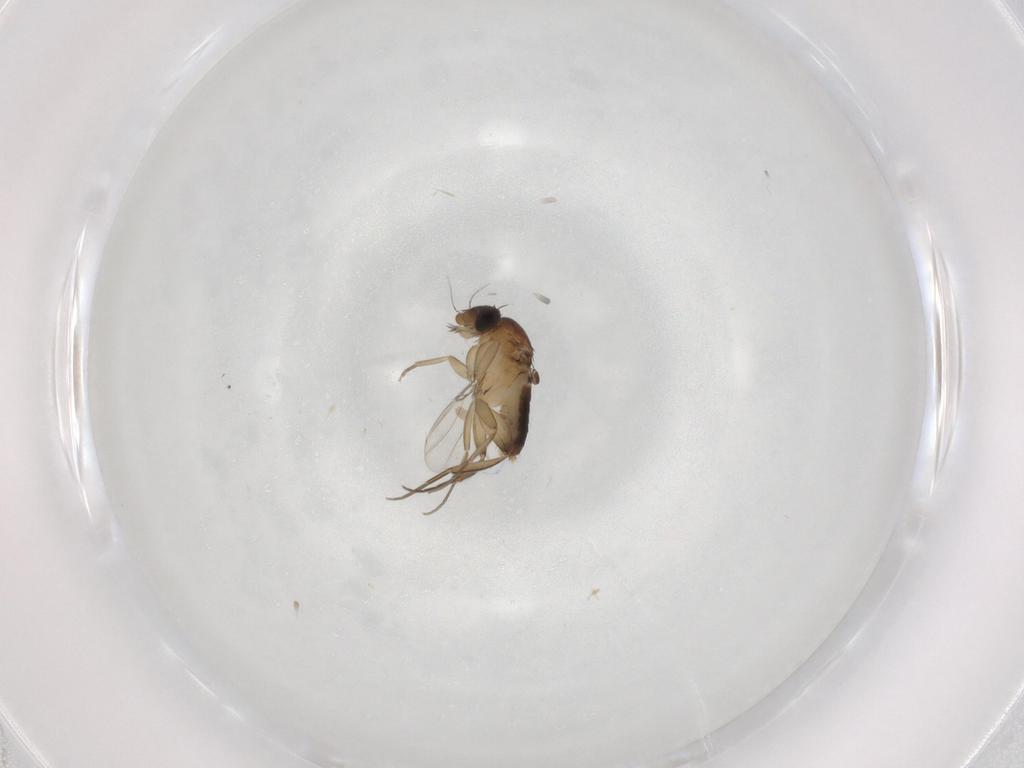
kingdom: Animalia
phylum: Arthropoda
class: Insecta
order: Diptera
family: Phoridae
